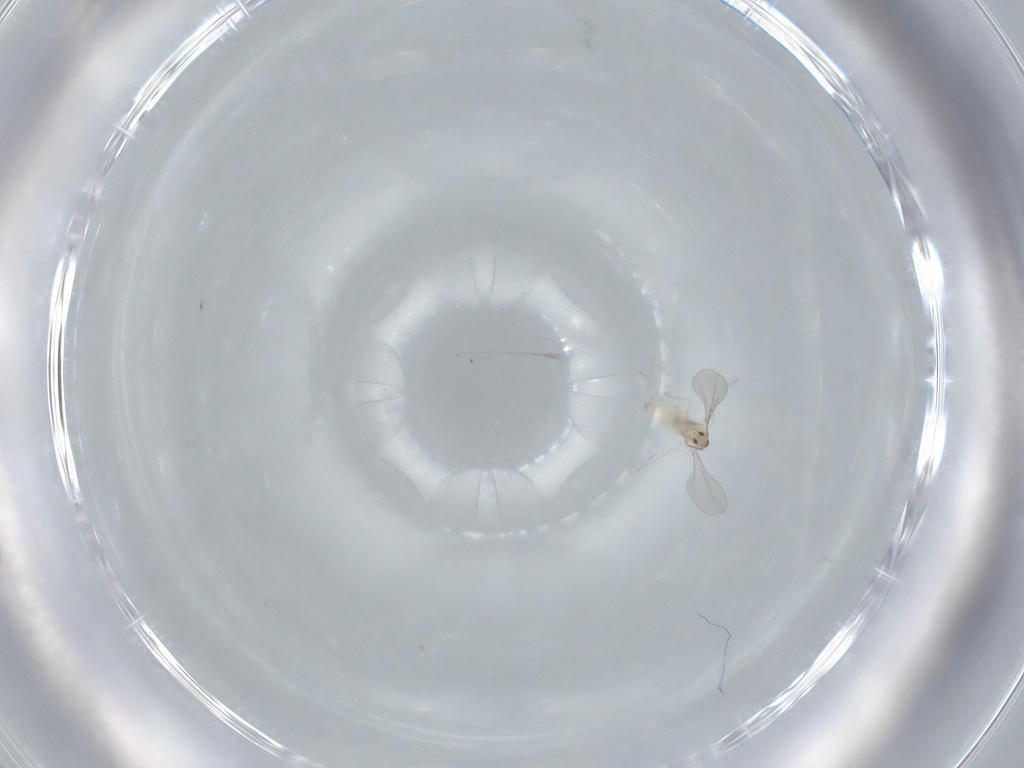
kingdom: Animalia
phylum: Arthropoda
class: Insecta
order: Diptera
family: Cecidomyiidae
